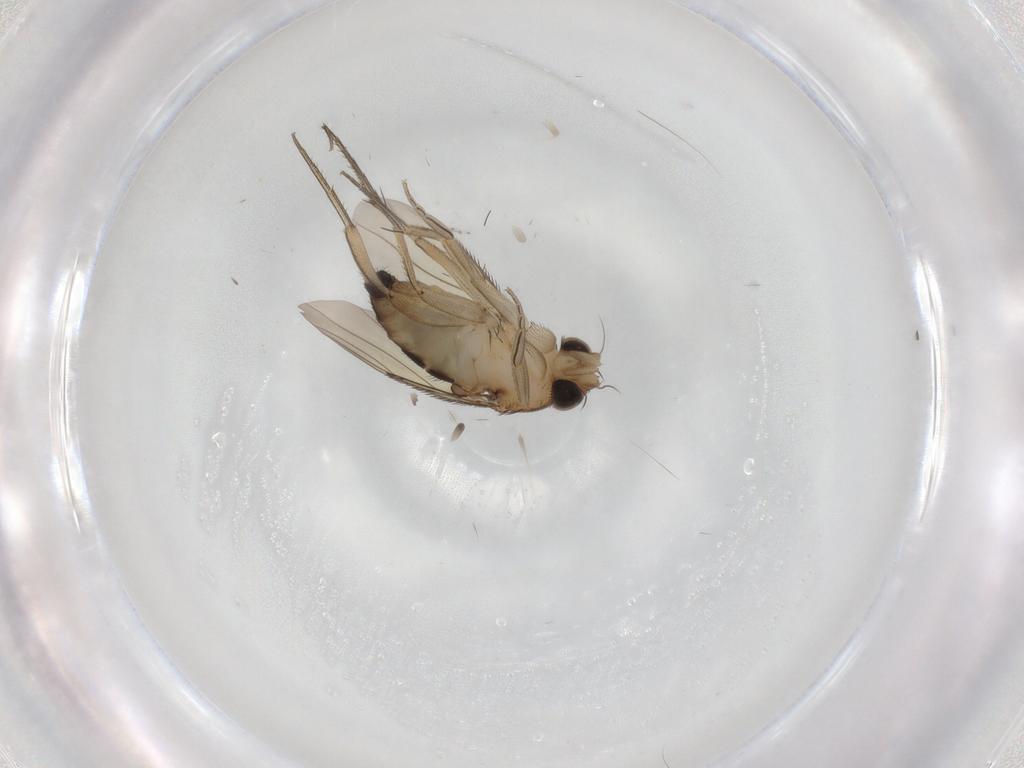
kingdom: Animalia
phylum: Arthropoda
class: Insecta
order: Diptera
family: Phoridae
